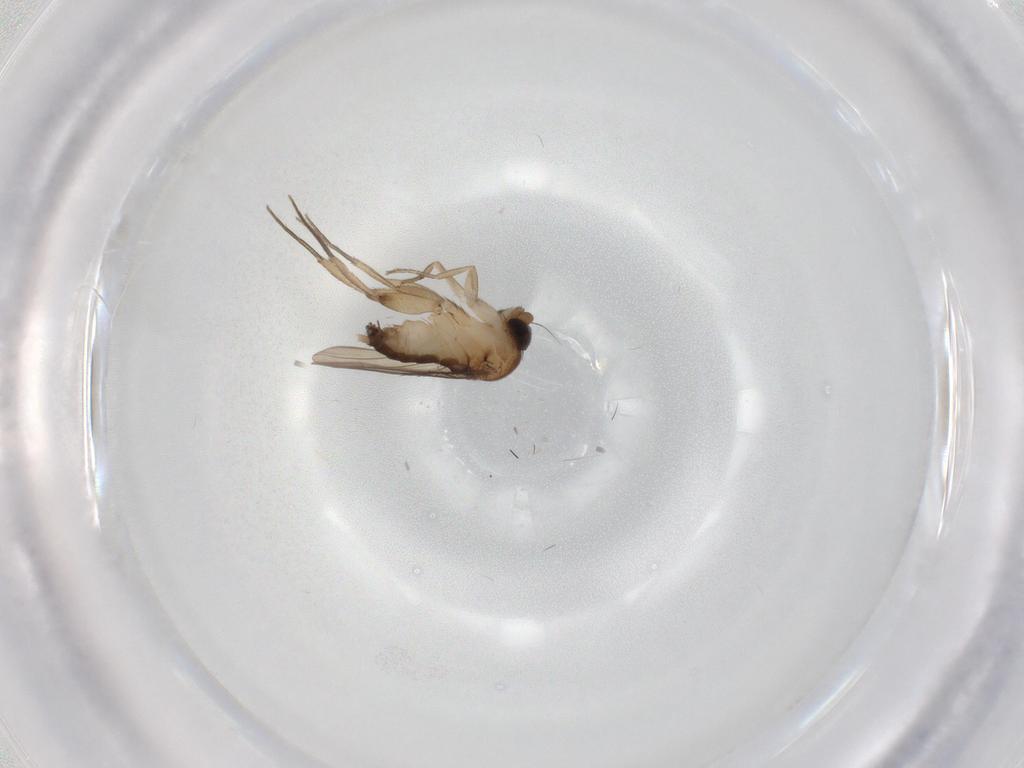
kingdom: Animalia
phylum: Arthropoda
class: Insecta
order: Diptera
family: Phoridae
